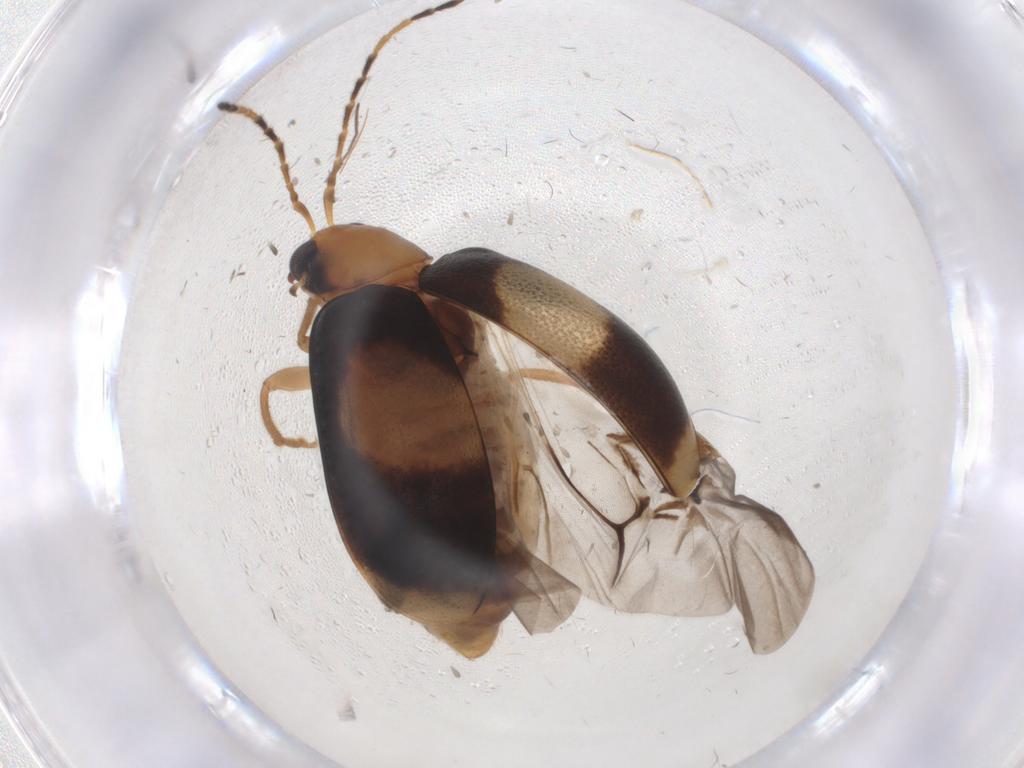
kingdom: Animalia
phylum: Arthropoda
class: Insecta
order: Coleoptera
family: Chrysomelidae
